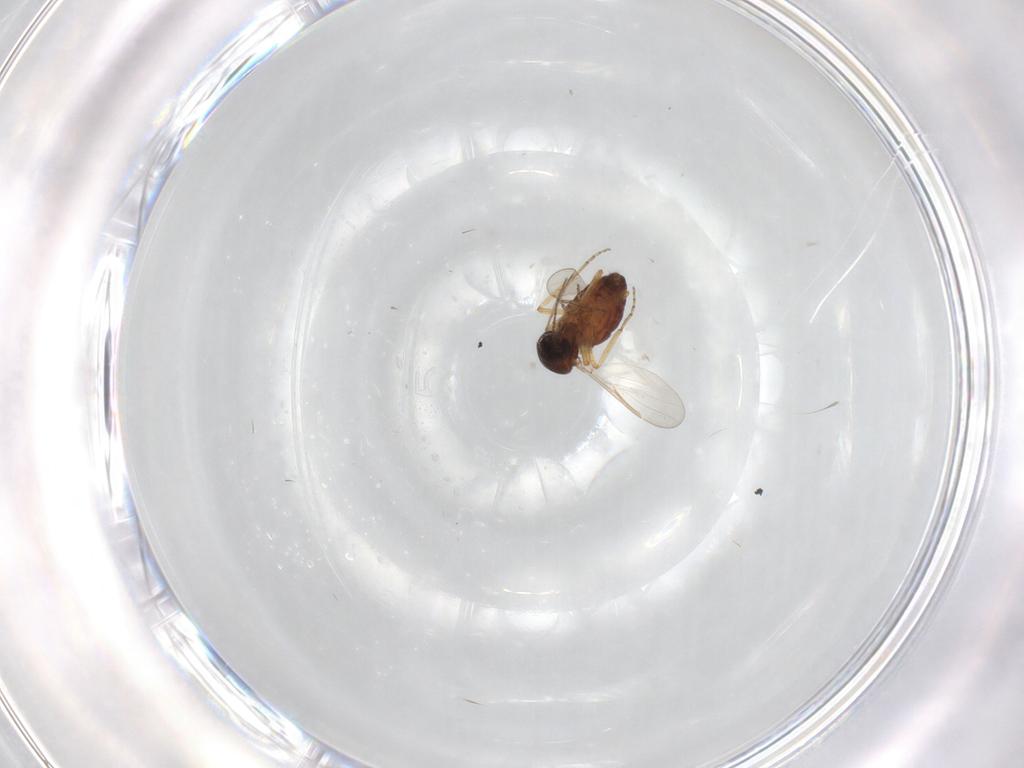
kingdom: Animalia
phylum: Arthropoda
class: Insecta
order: Diptera
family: Ceratopogonidae
